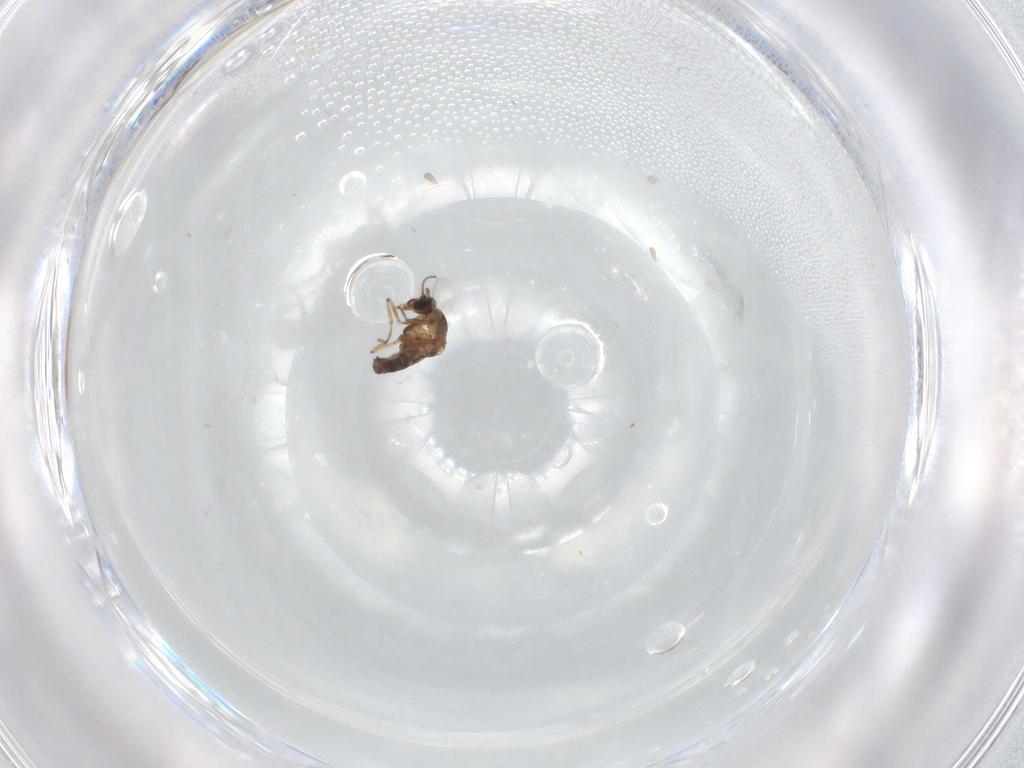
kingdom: Animalia
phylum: Arthropoda
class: Insecta
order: Diptera
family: Ceratopogonidae
